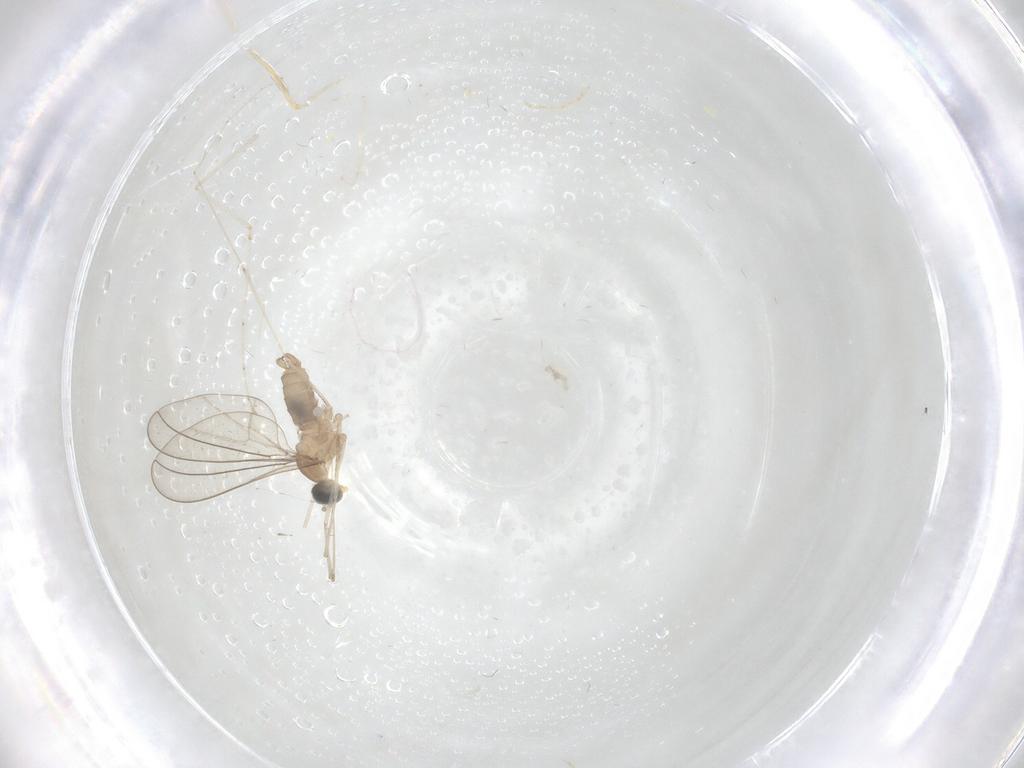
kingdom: Animalia
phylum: Arthropoda
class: Insecta
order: Diptera
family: Cecidomyiidae
